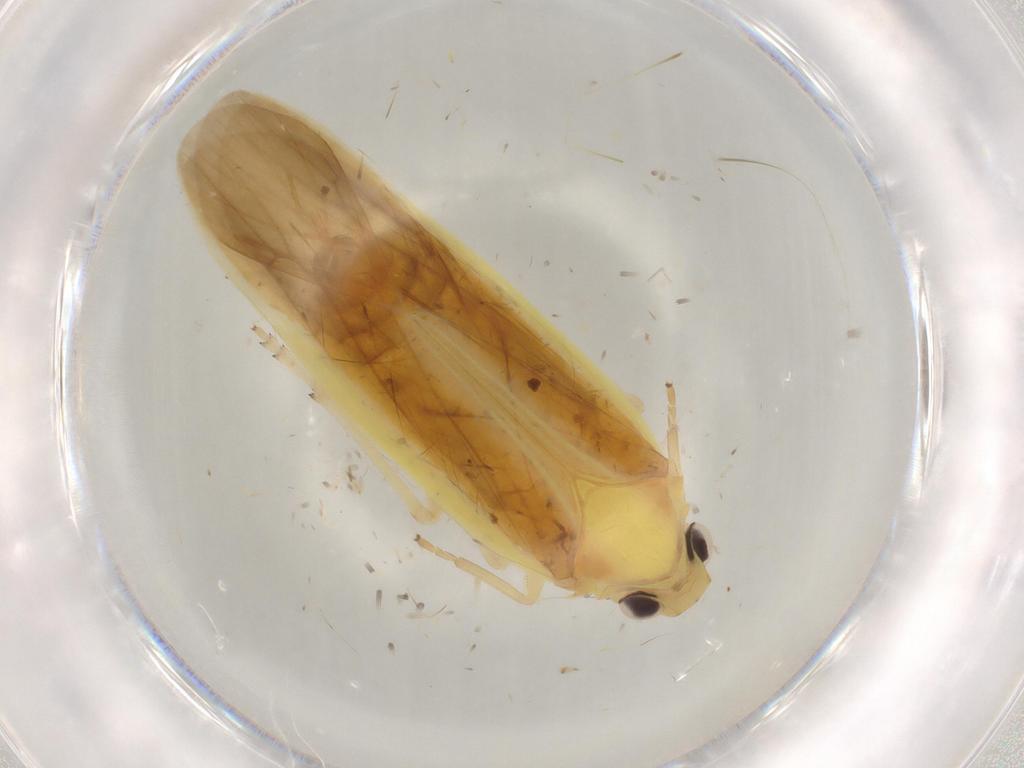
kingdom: Animalia
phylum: Arthropoda
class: Insecta
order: Hemiptera
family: Achilidae
